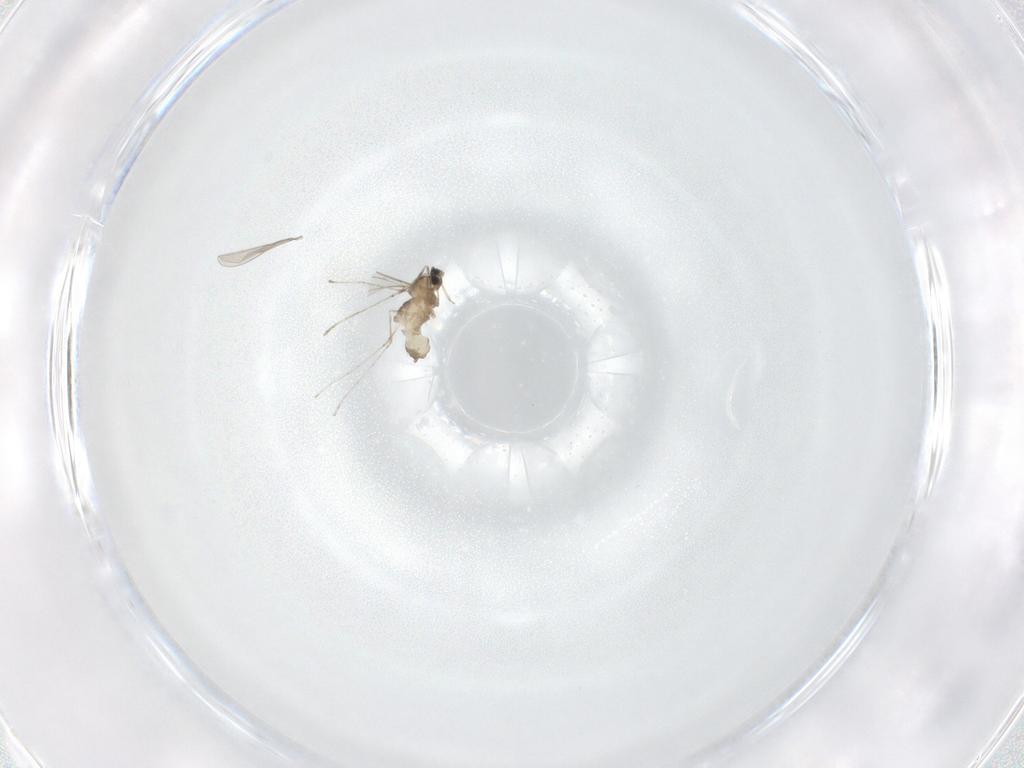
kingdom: Animalia
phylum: Arthropoda
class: Insecta
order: Diptera
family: Cecidomyiidae
